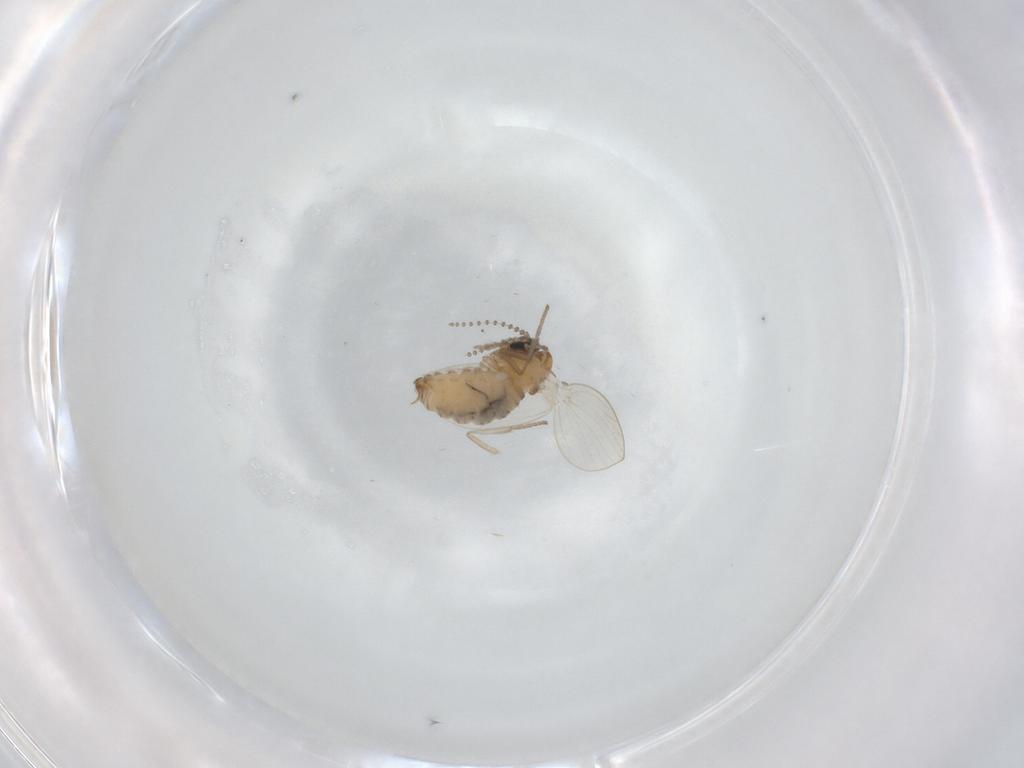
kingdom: Animalia
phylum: Arthropoda
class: Insecta
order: Diptera
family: Psychodidae
